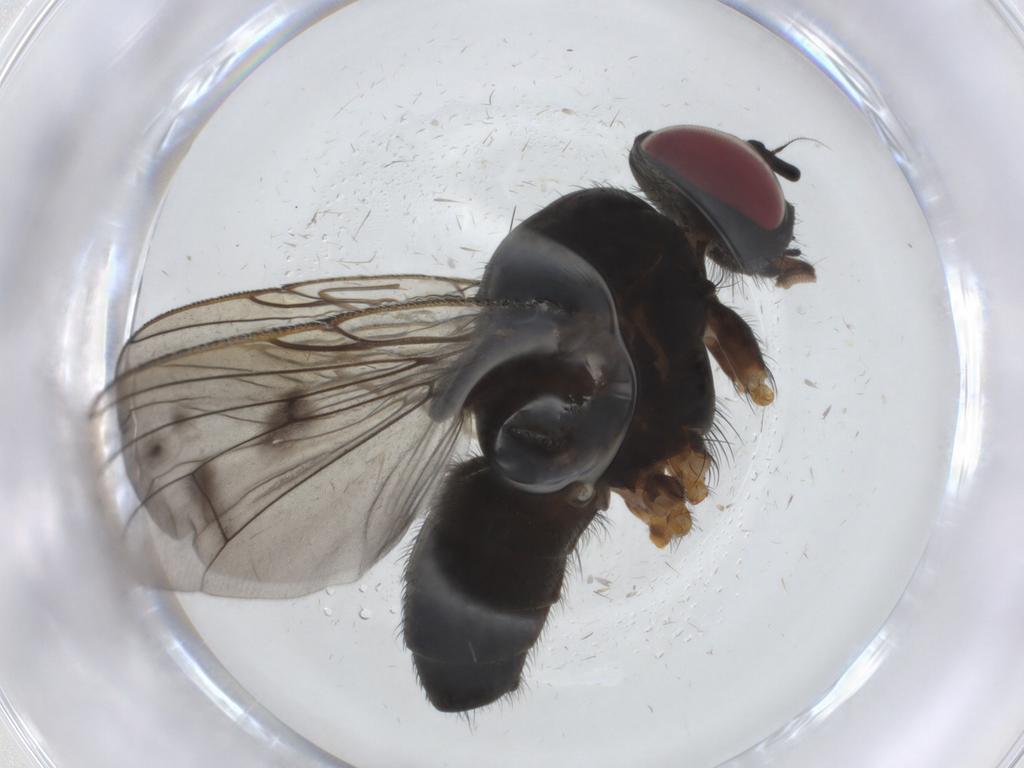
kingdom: Animalia
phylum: Arthropoda
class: Insecta
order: Diptera
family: Muscidae
